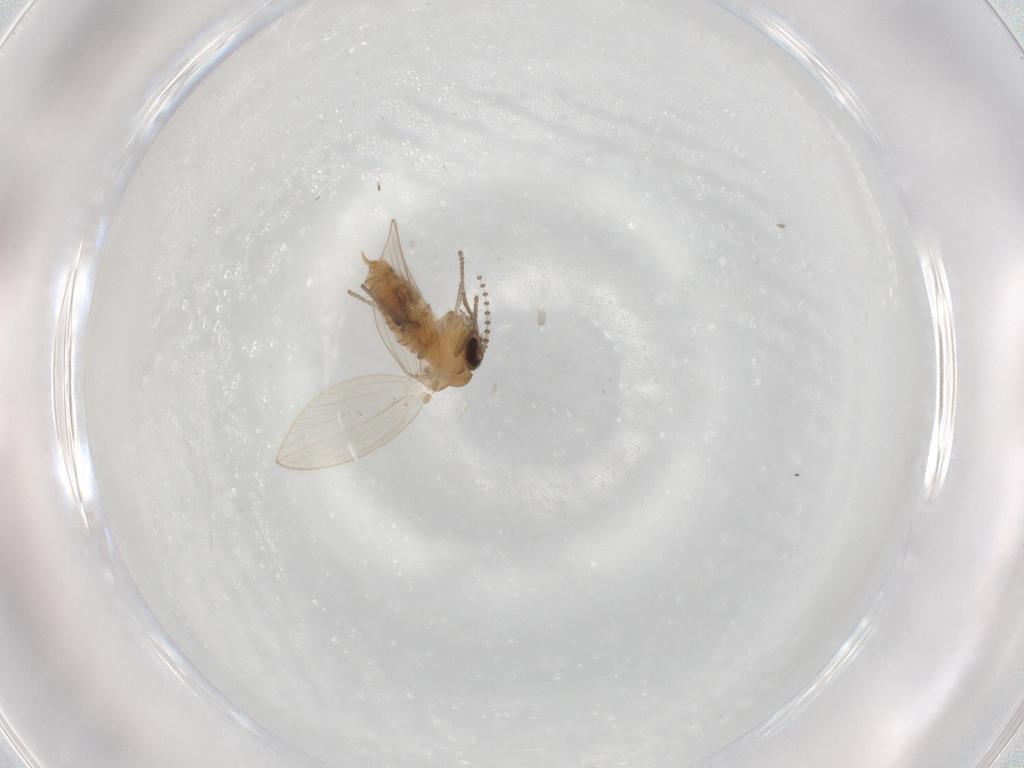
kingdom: Animalia
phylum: Arthropoda
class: Insecta
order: Diptera
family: Psychodidae
